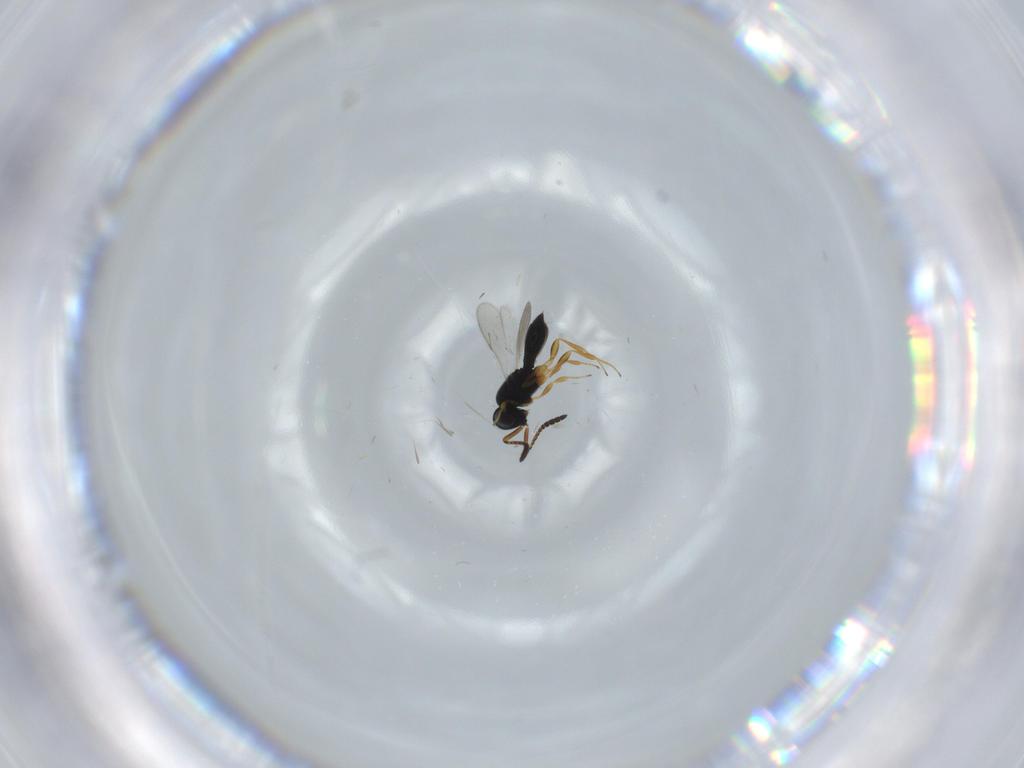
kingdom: Animalia
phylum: Arthropoda
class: Insecta
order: Hymenoptera
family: Scelionidae
